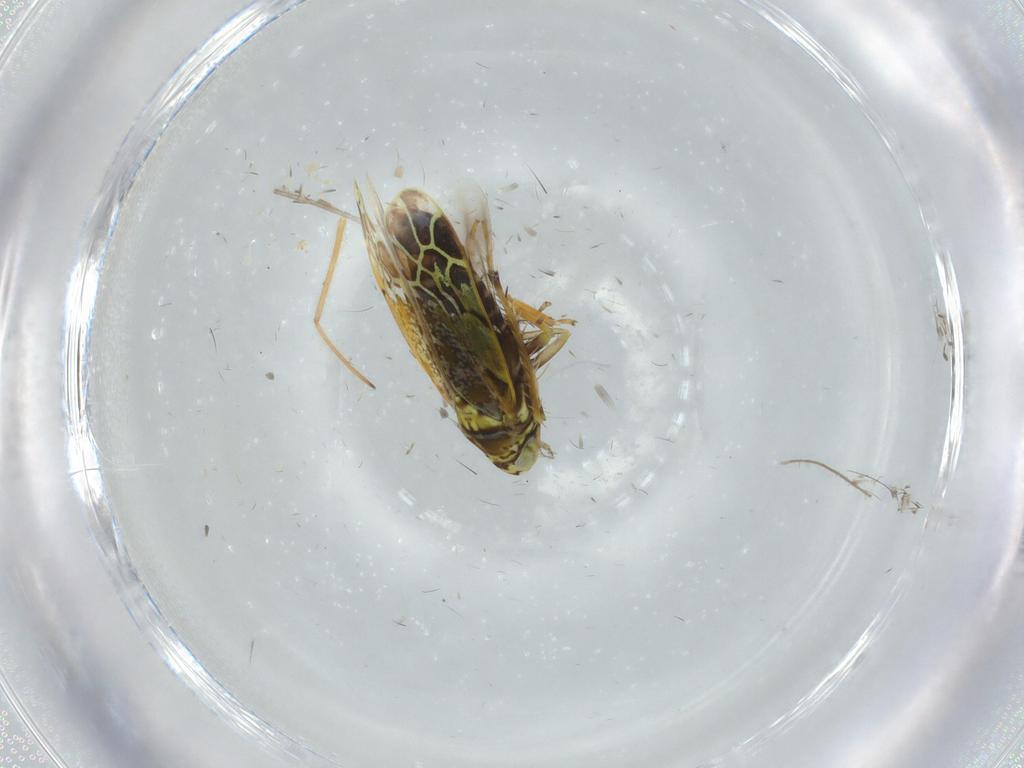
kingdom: Animalia
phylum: Arthropoda
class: Insecta
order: Hemiptera
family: Cicadellidae
